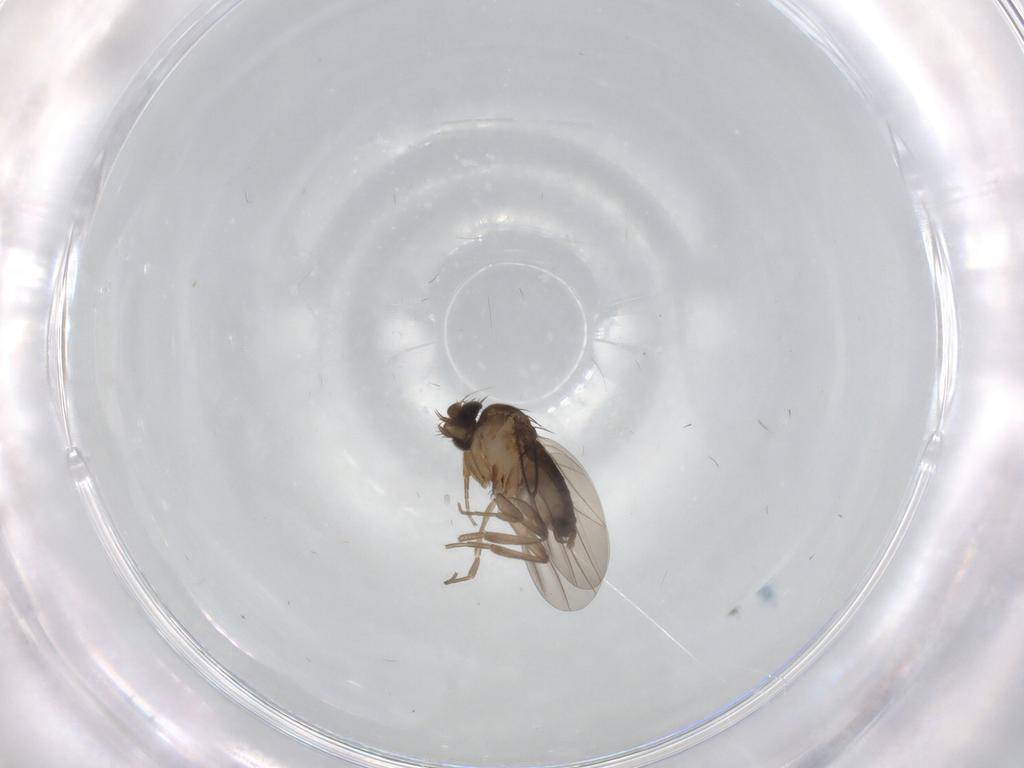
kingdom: Animalia
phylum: Arthropoda
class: Insecta
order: Diptera
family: Phoridae
